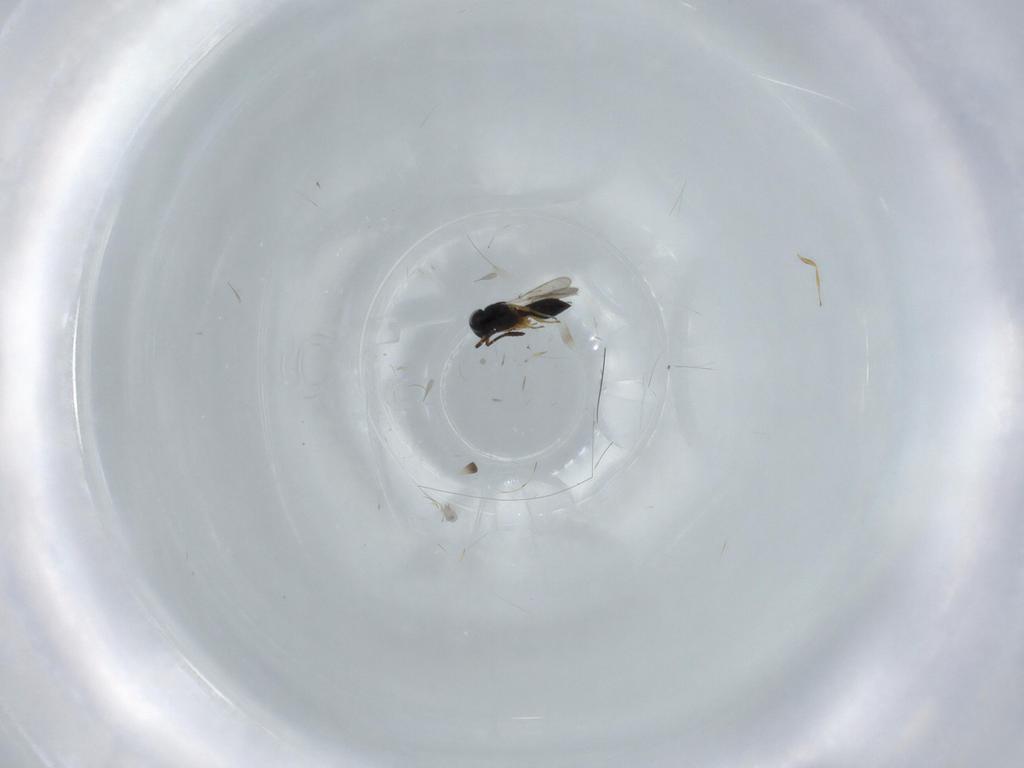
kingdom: Animalia
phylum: Arthropoda
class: Insecta
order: Hymenoptera
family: Scelionidae
